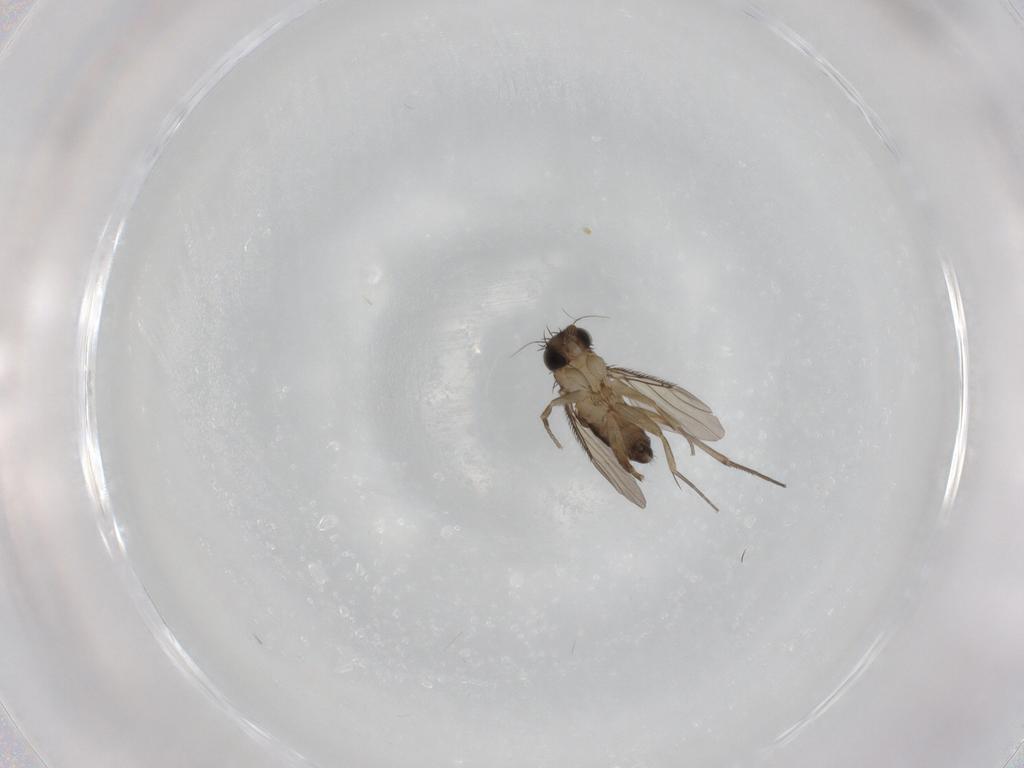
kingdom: Animalia
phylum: Arthropoda
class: Insecta
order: Diptera
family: Phoridae
